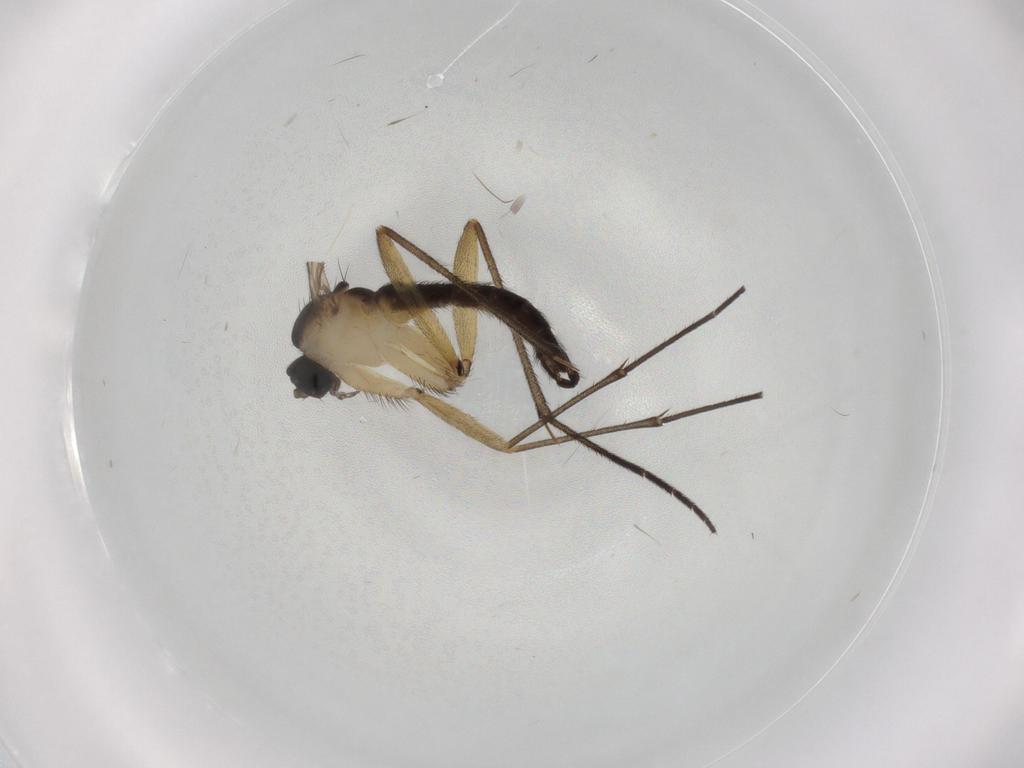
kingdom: Animalia
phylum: Arthropoda
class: Insecta
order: Diptera
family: Sciaridae
